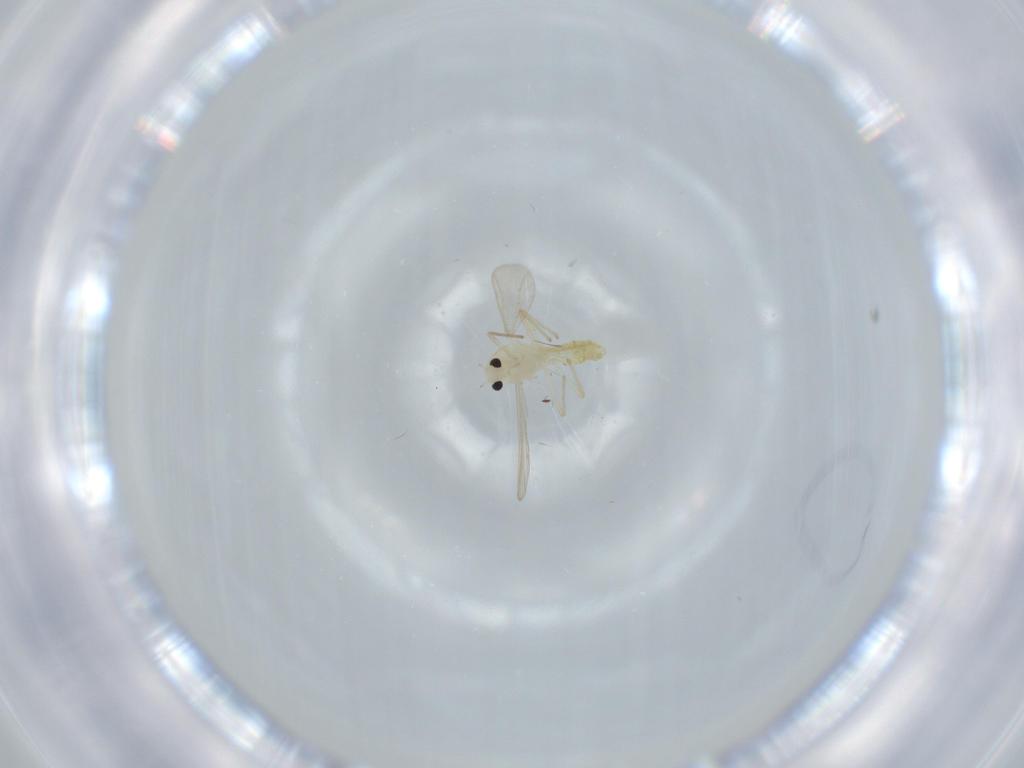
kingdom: Animalia
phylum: Arthropoda
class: Insecta
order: Diptera
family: Chironomidae
